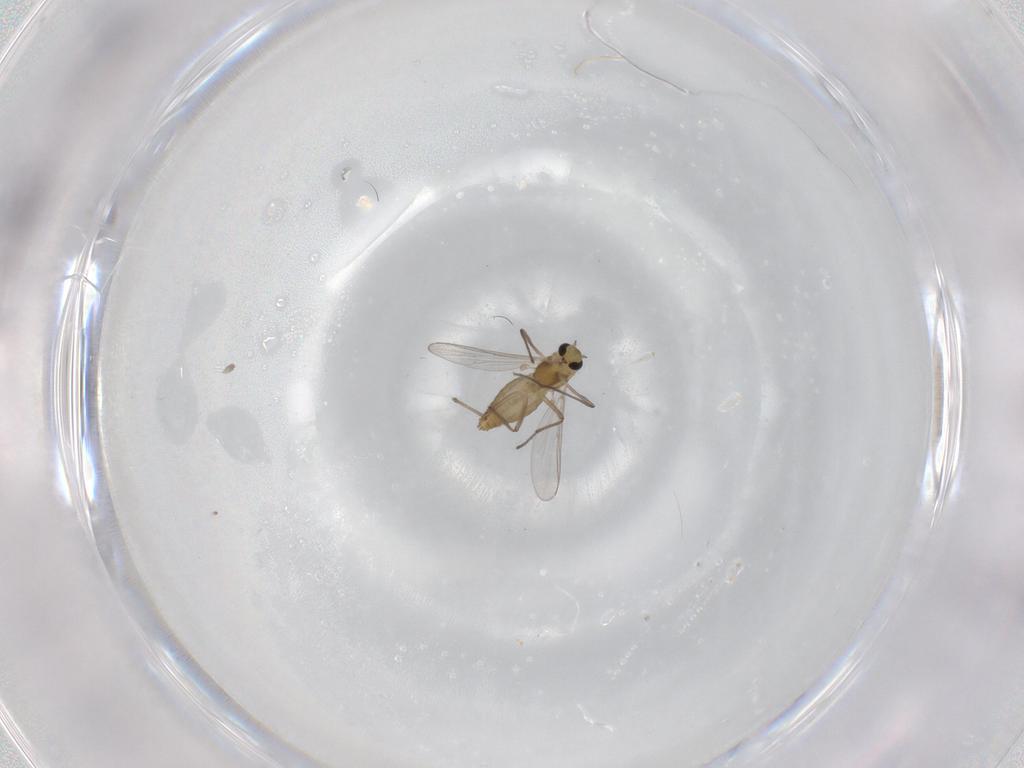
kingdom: Animalia
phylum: Arthropoda
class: Insecta
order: Diptera
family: Chironomidae
